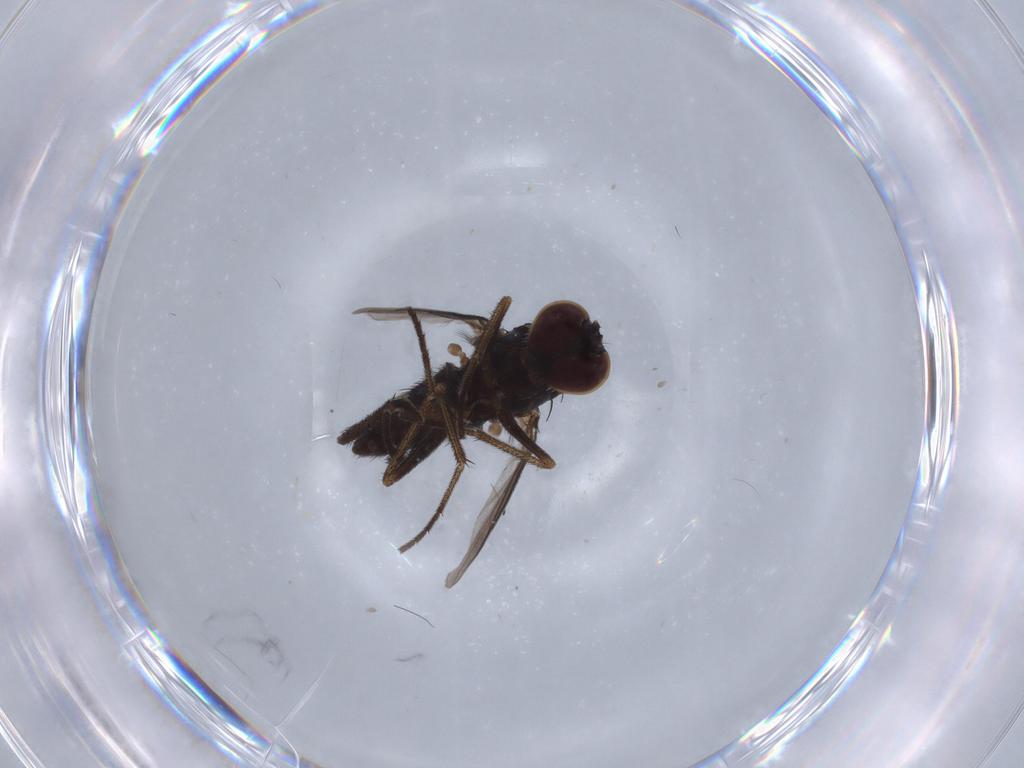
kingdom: Animalia
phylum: Arthropoda
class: Insecta
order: Diptera
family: Dolichopodidae
